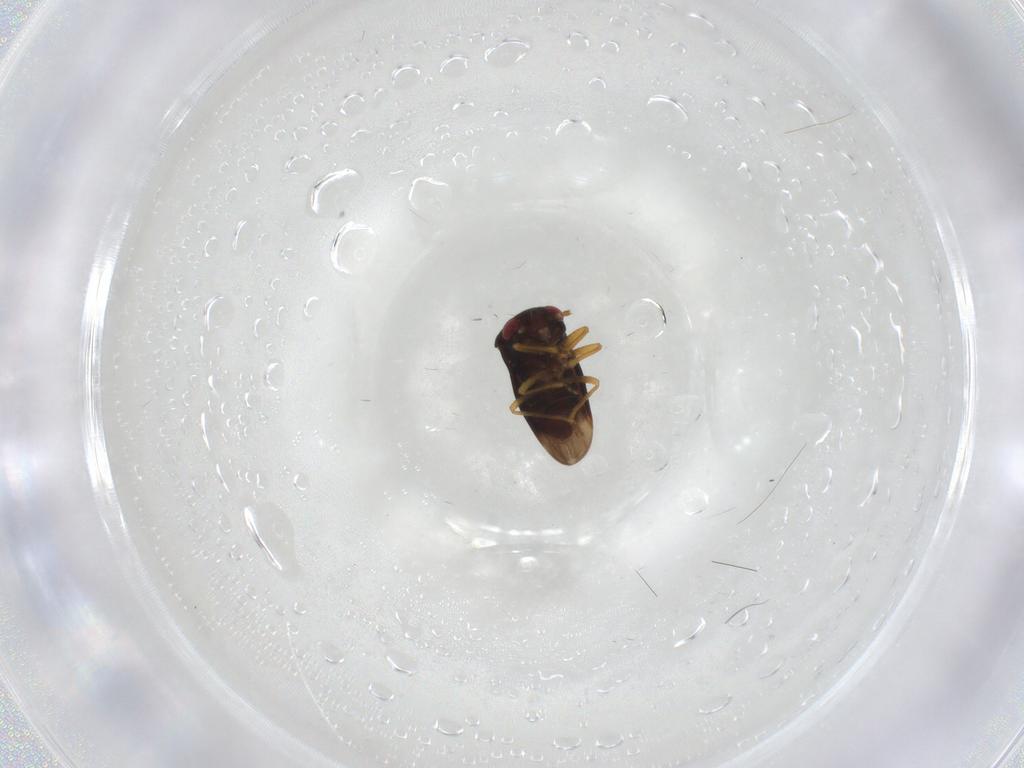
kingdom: Animalia
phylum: Arthropoda
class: Insecta
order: Hemiptera
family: Schizopteridae
